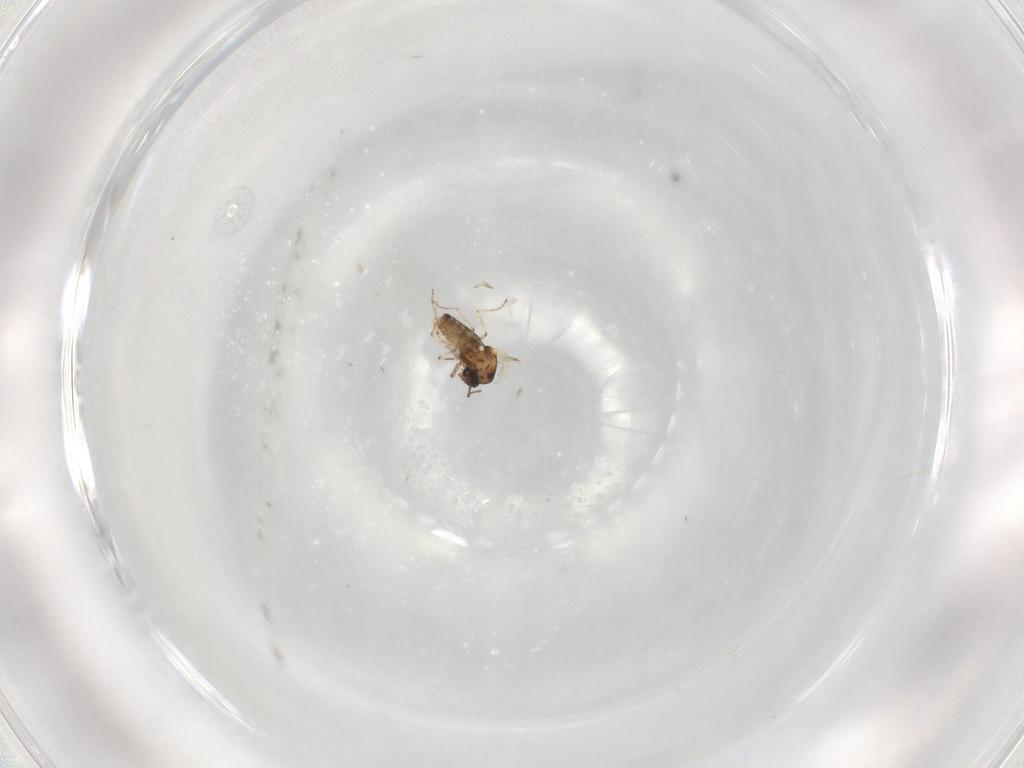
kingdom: Animalia
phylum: Arthropoda
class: Insecta
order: Diptera
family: Ceratopogonidae
